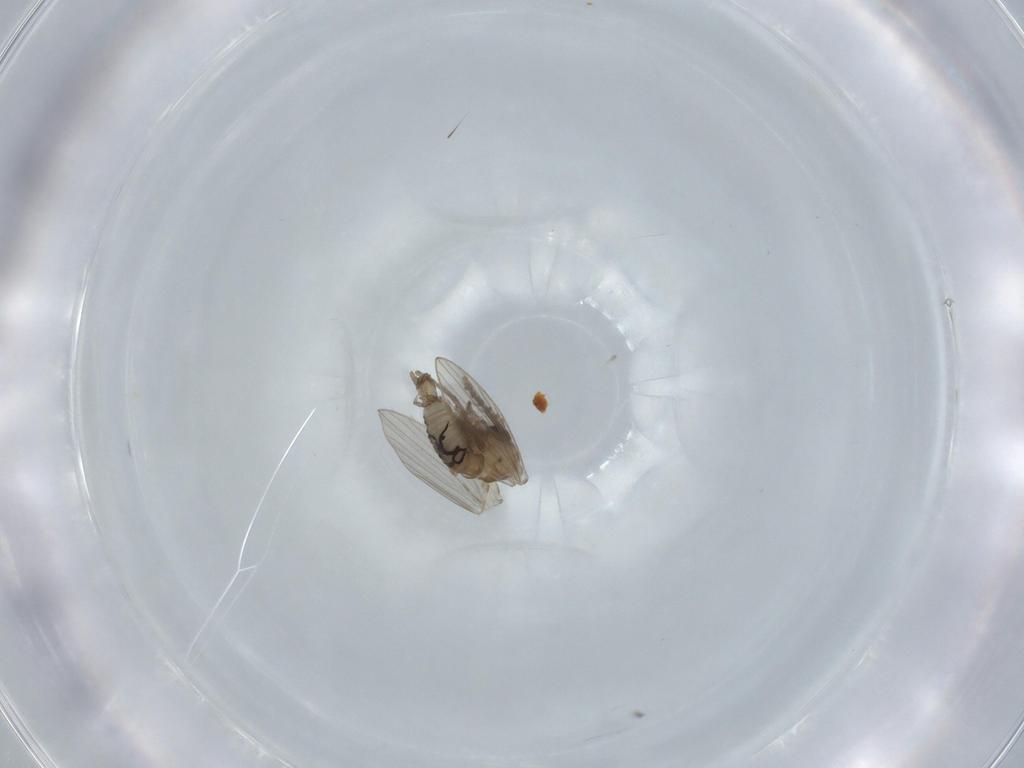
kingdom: Animalia
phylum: Arthropoda
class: Insecta
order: Diptera
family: Psychodidae
